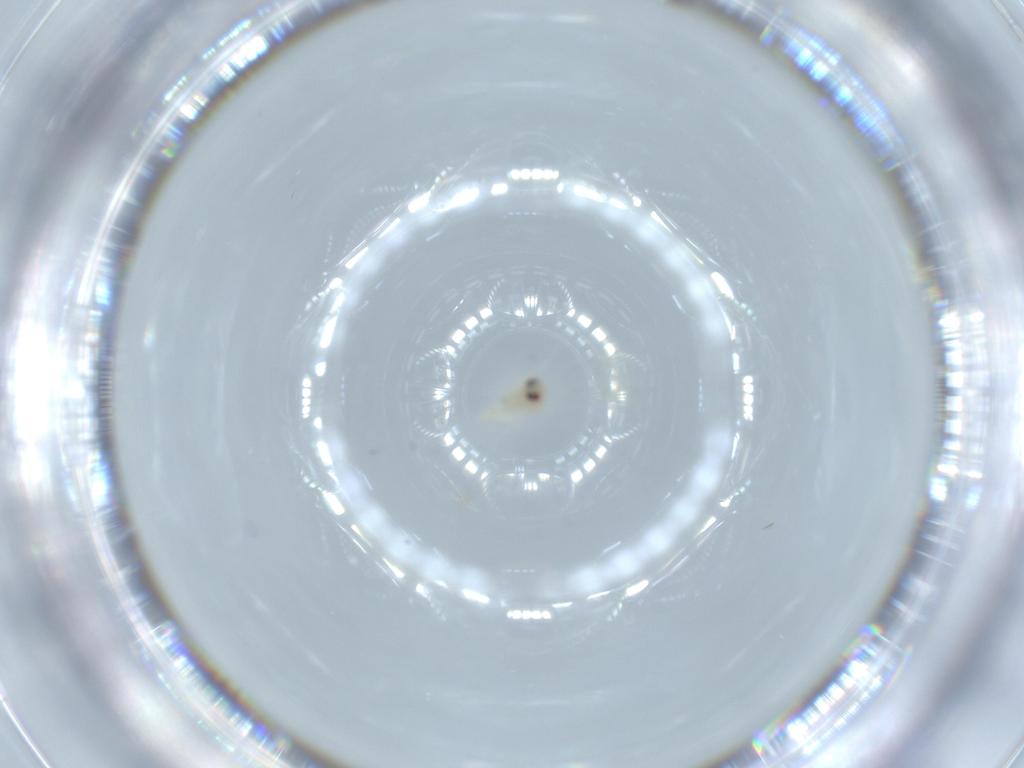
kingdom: Animalia
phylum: Arthropoda
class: Insecta
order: Hemiptera
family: Aleyrodidae
